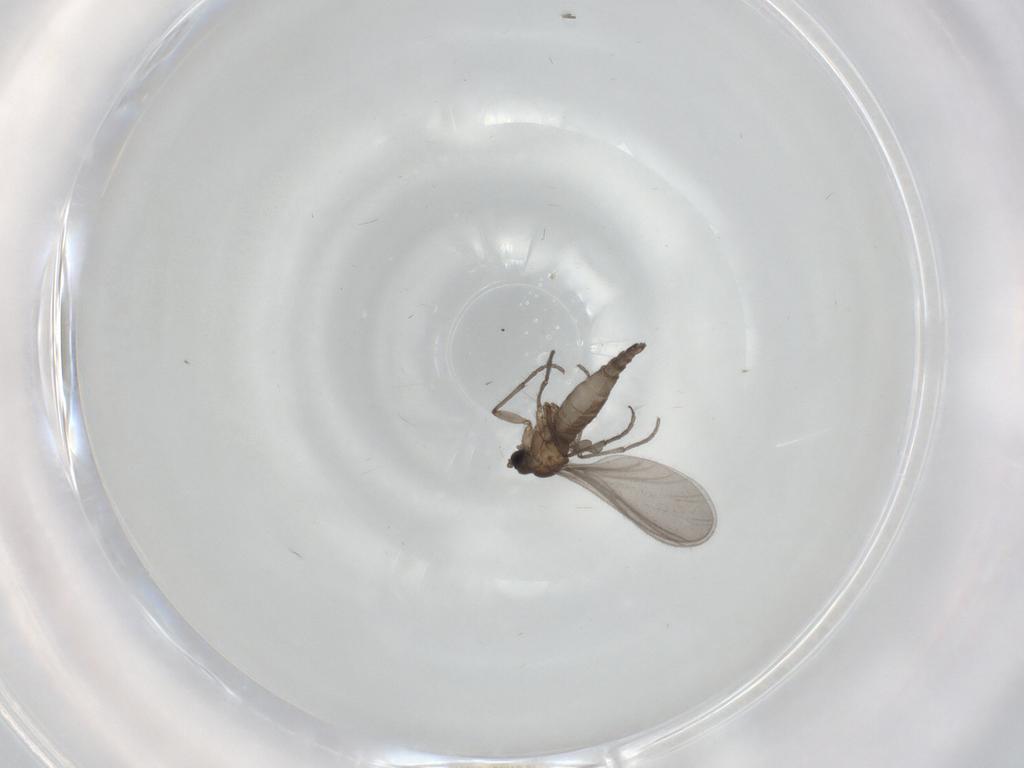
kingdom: Animalia
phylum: Arthropoda
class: Insecta
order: Diptera
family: Sciaridae
